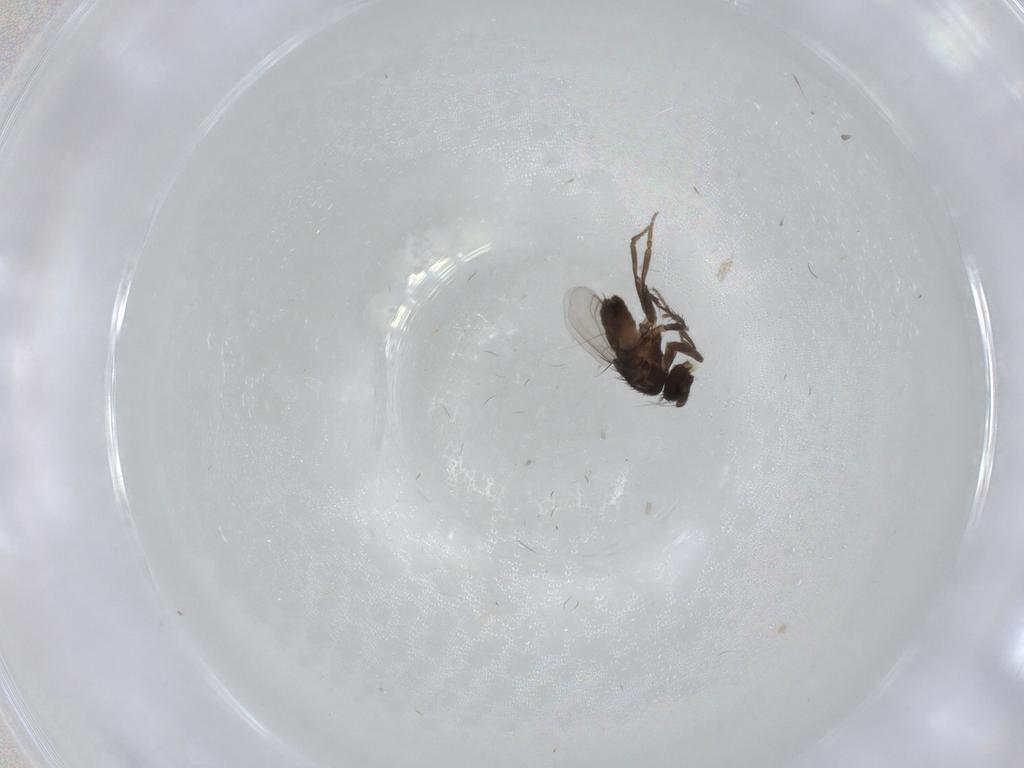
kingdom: Animalia
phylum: Arthropoda
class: Insecta
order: Diptera
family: Cecidomyiidae
